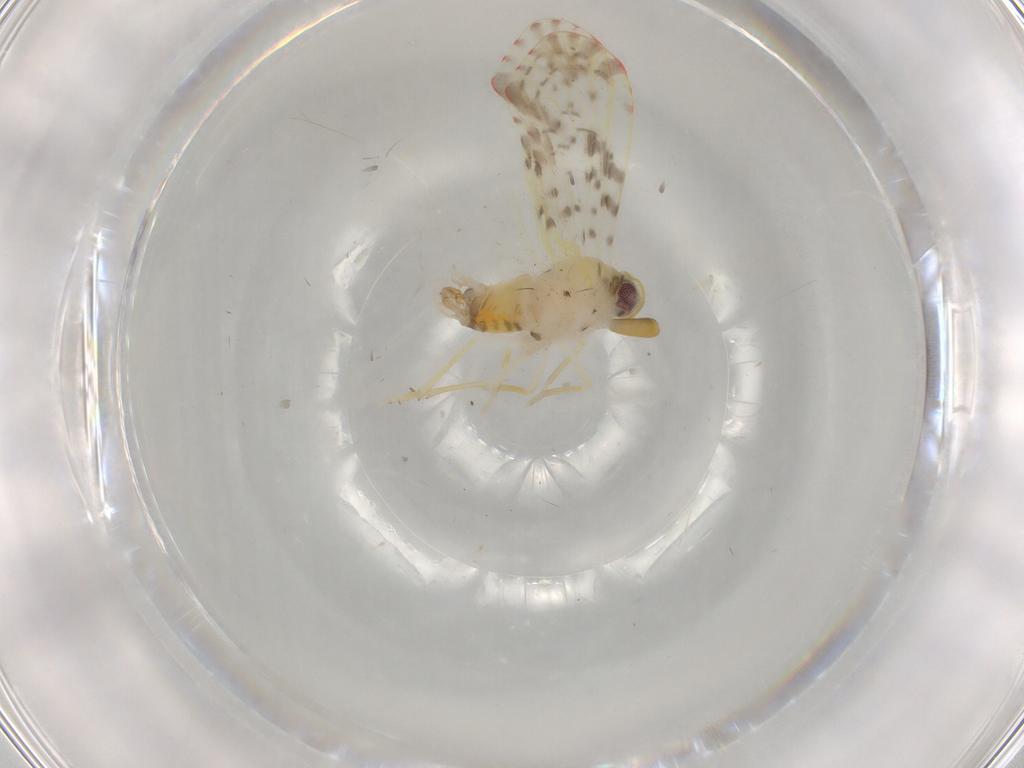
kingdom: Animalia
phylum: Arthropoda
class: Insecta
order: Hemiptera
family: Derbidae
